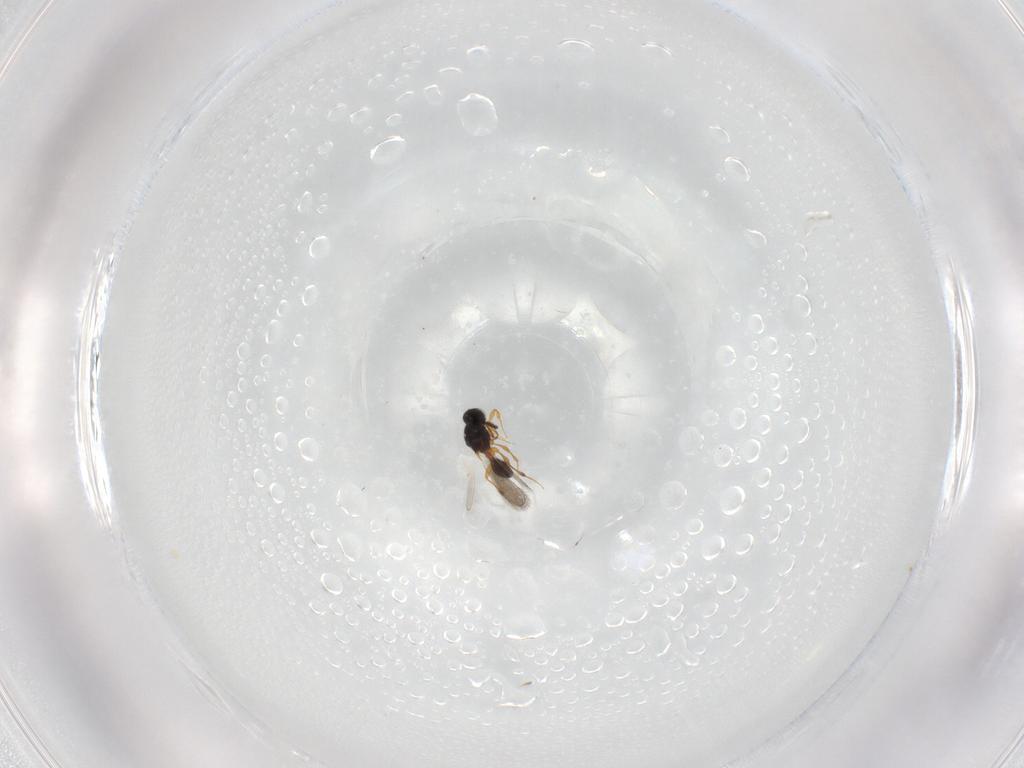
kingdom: Animalia
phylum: Arthropoda
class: Insecta
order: Hymenoptera
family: Platygastridae
